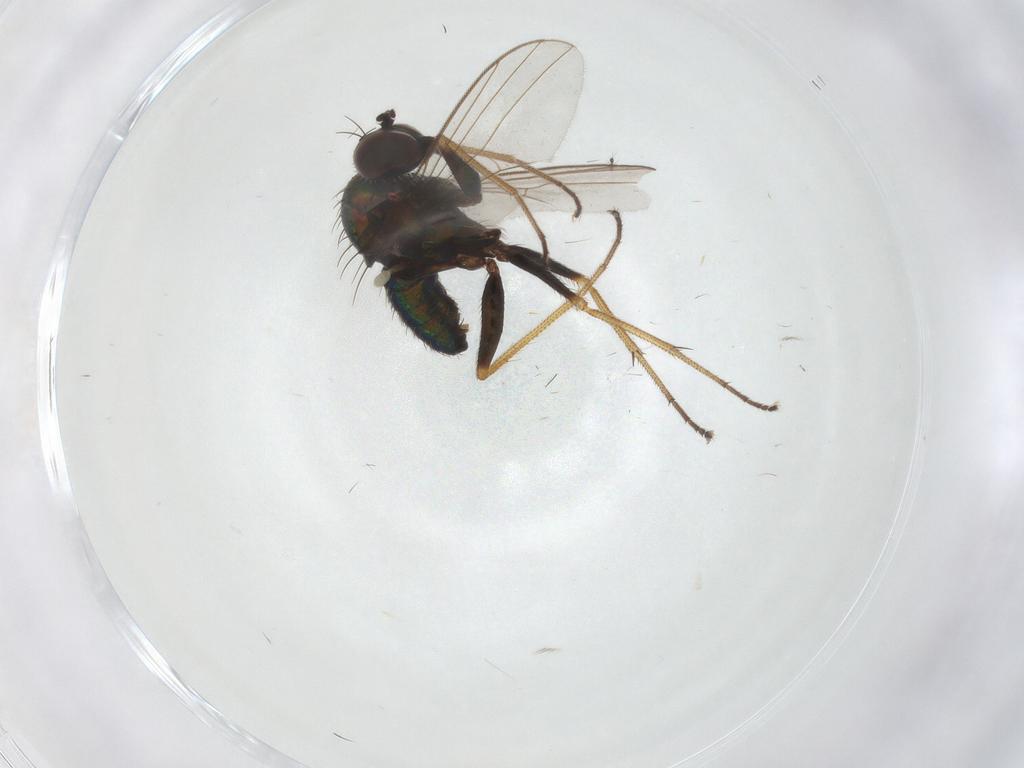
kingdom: Animalia
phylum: Arthropoda
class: Insecta
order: Diptera
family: Dolichopodidae
